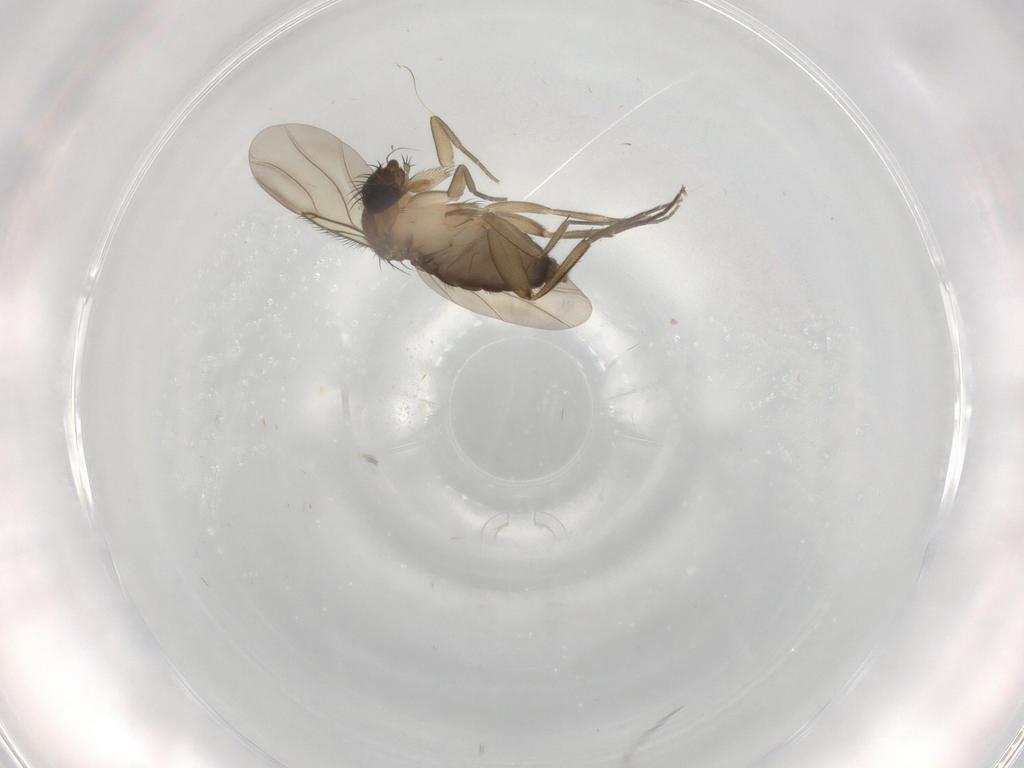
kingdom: Animalia
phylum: Arthropoda
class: Insecta
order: Diptera
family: Phoridae
